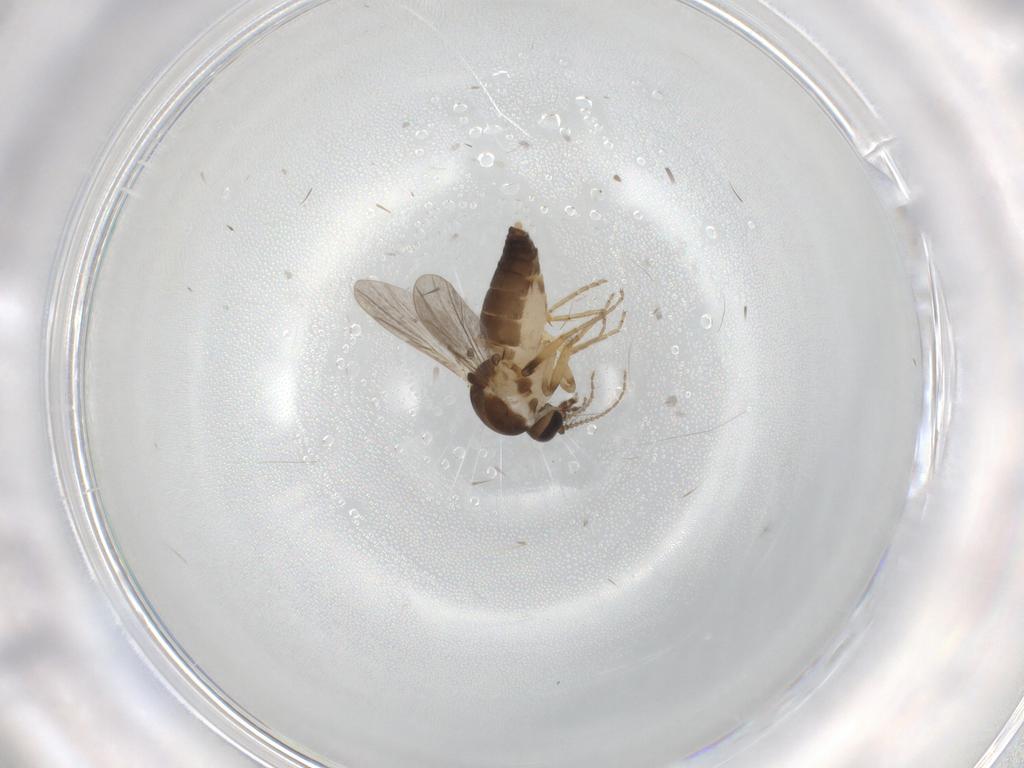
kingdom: Animalia
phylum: Arthropoda
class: Insecta
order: Diptera
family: Ceratopogonidae
